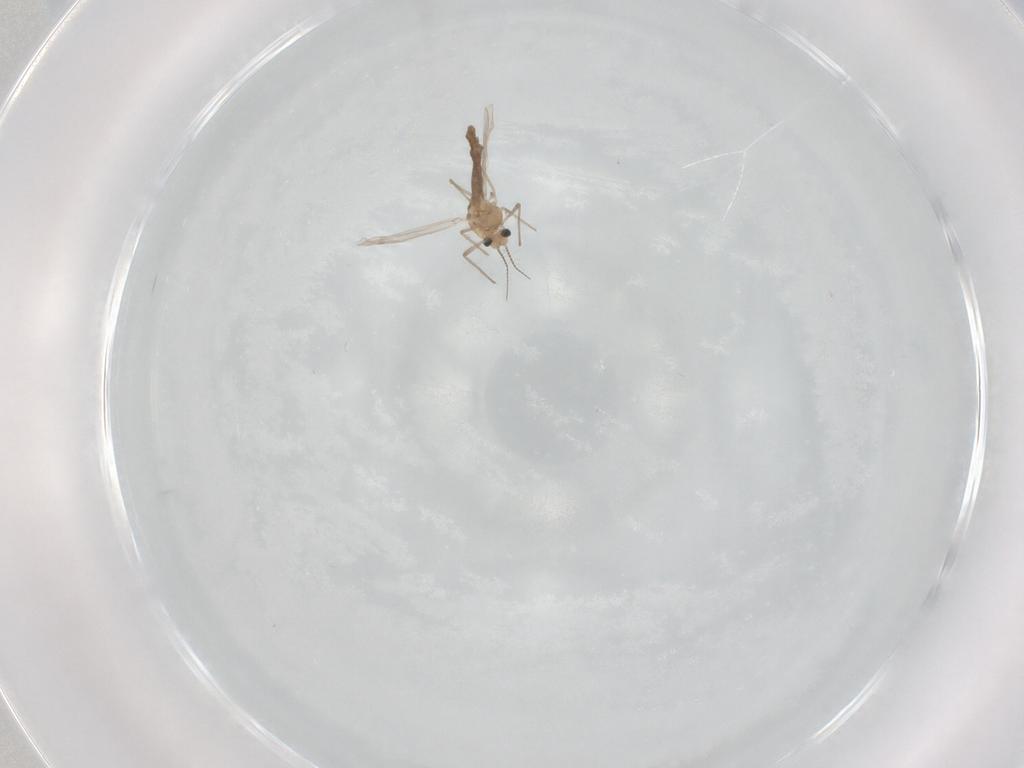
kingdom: Animalia
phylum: Arthropoda
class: Insecta
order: Diptera
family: Chironomidae
